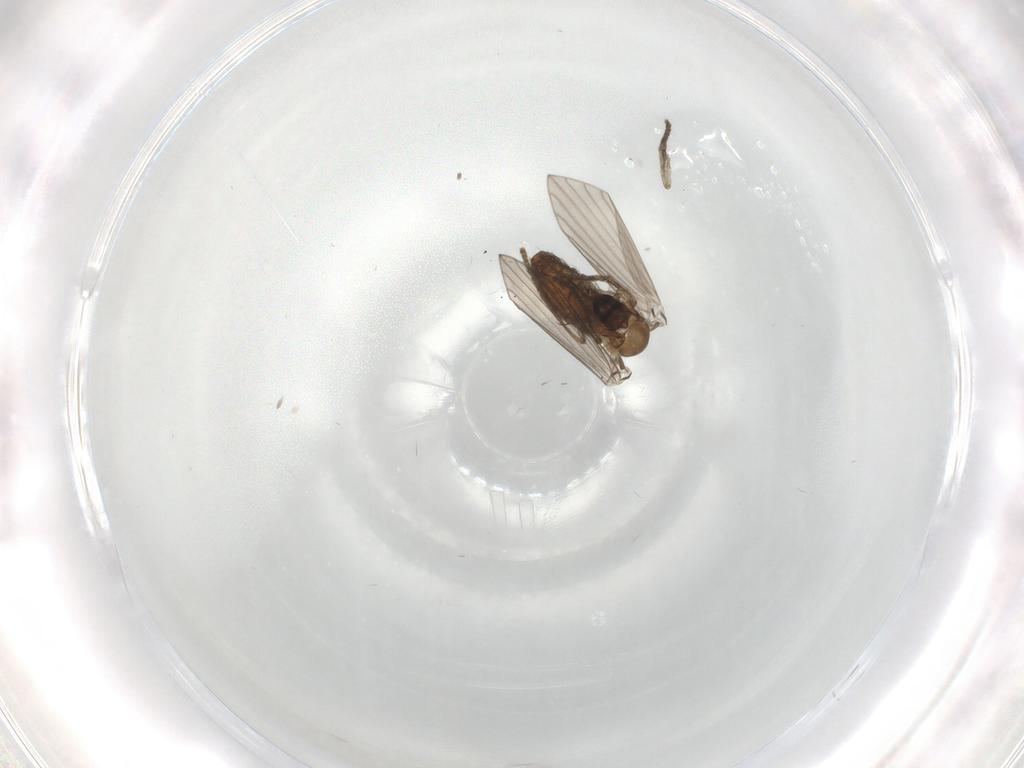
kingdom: Animalia
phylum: Arthropoda
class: Insecta
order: Diptera
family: Psychodidae
